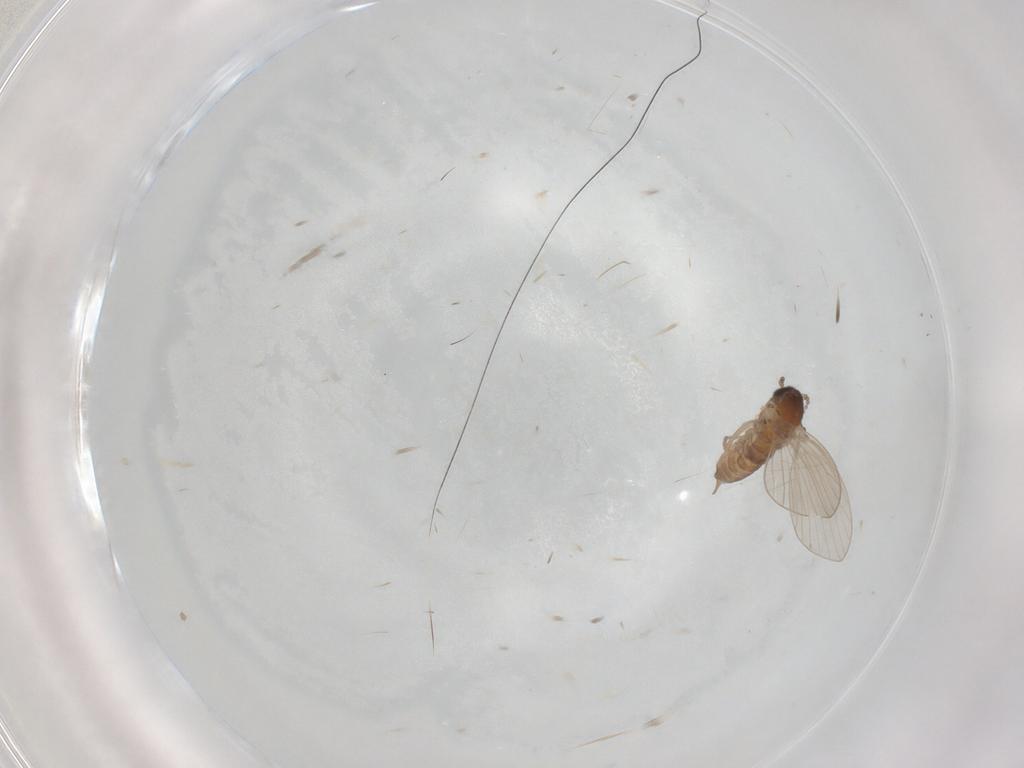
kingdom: Animalia
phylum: Arthropoda
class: Insecta
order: Diptera
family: Psychodidae
